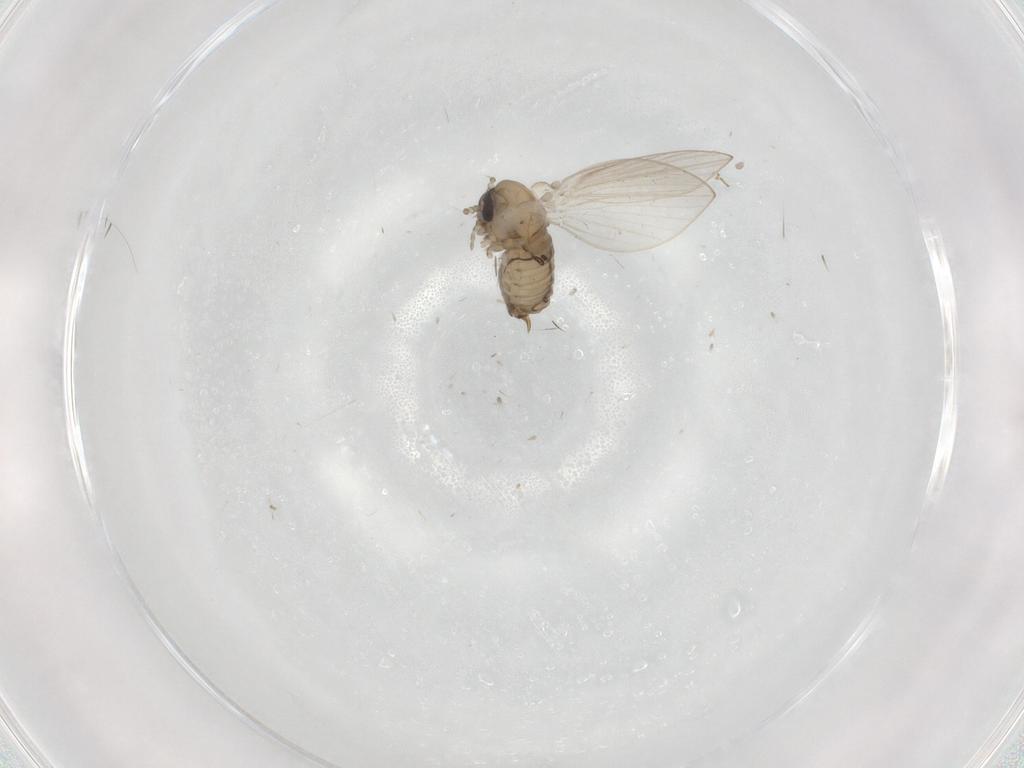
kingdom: Animalia
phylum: Arthropoda
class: Insecta
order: Diptera
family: Psychodidae
